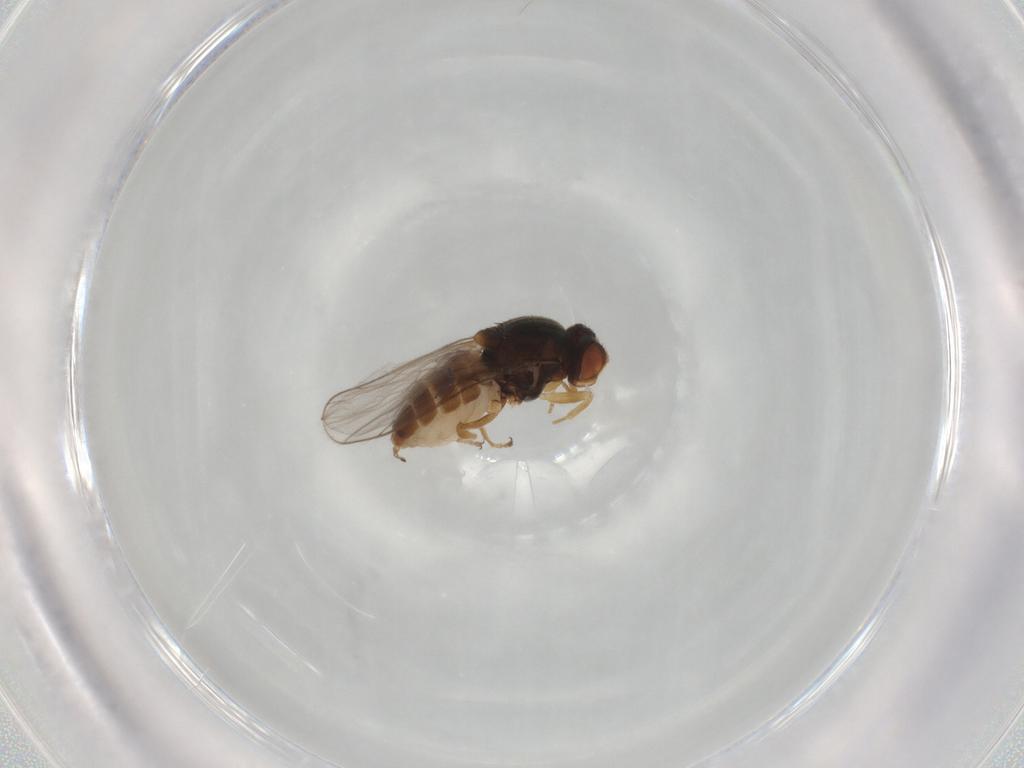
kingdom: Animalia
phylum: Arthropoda
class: Insecta
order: Diptera
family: Chloropidae
